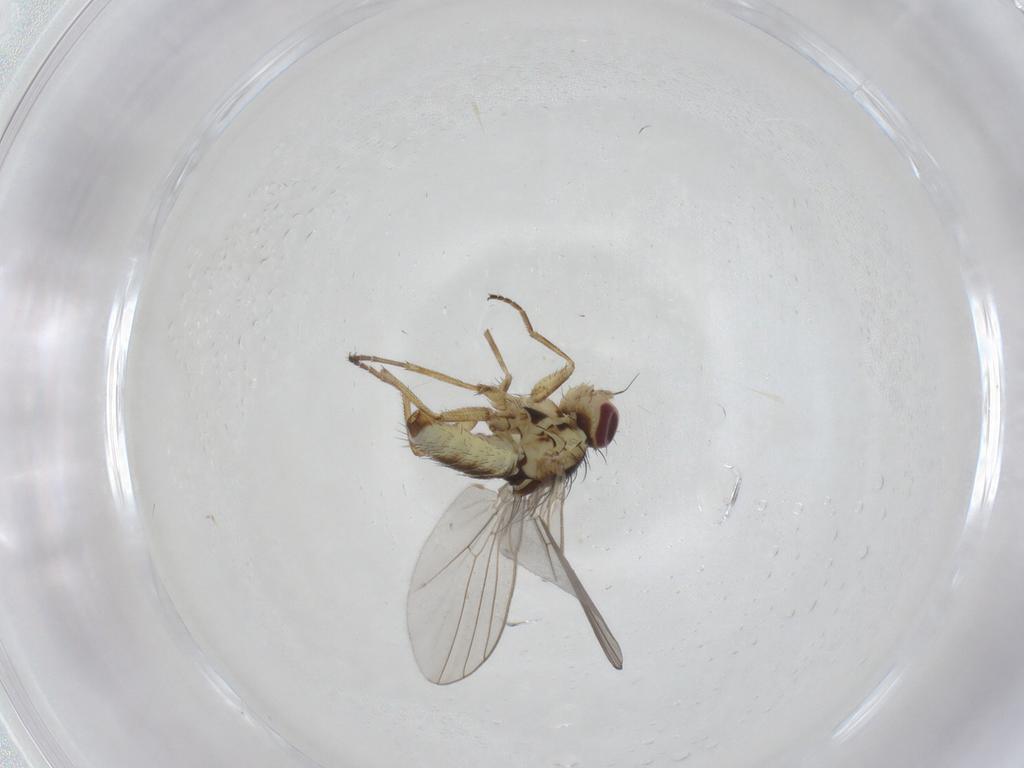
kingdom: Animalia
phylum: Arthropoda
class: Insecta
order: Diptera
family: Agromyzidae
